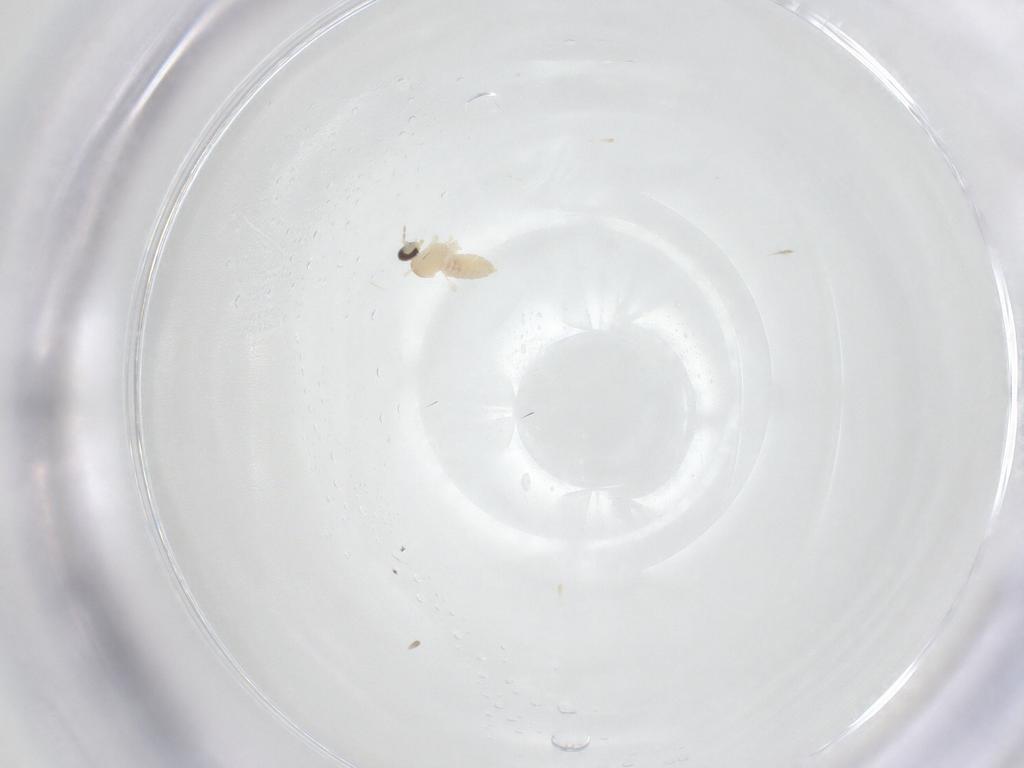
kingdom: Animalia
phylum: Arthropoda
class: Insecta
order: Diptera
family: Cecidomyiidae
